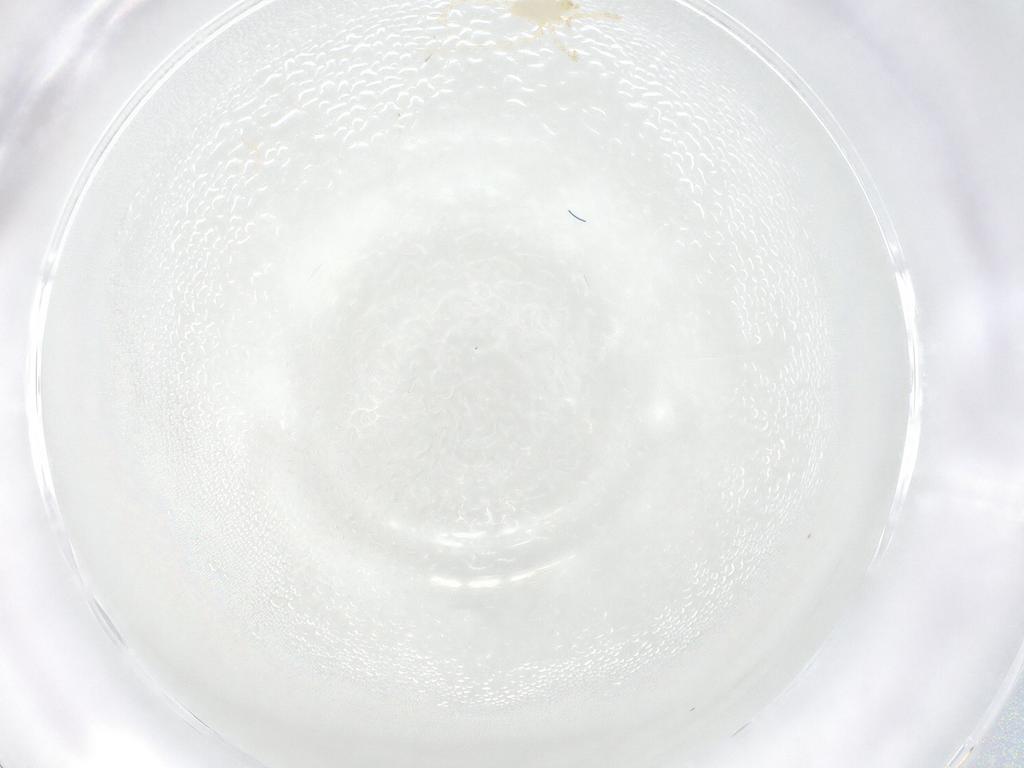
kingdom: Animalia
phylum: Arthropoda
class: Arachnida
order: Trombidiformes
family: Erythraeidae
